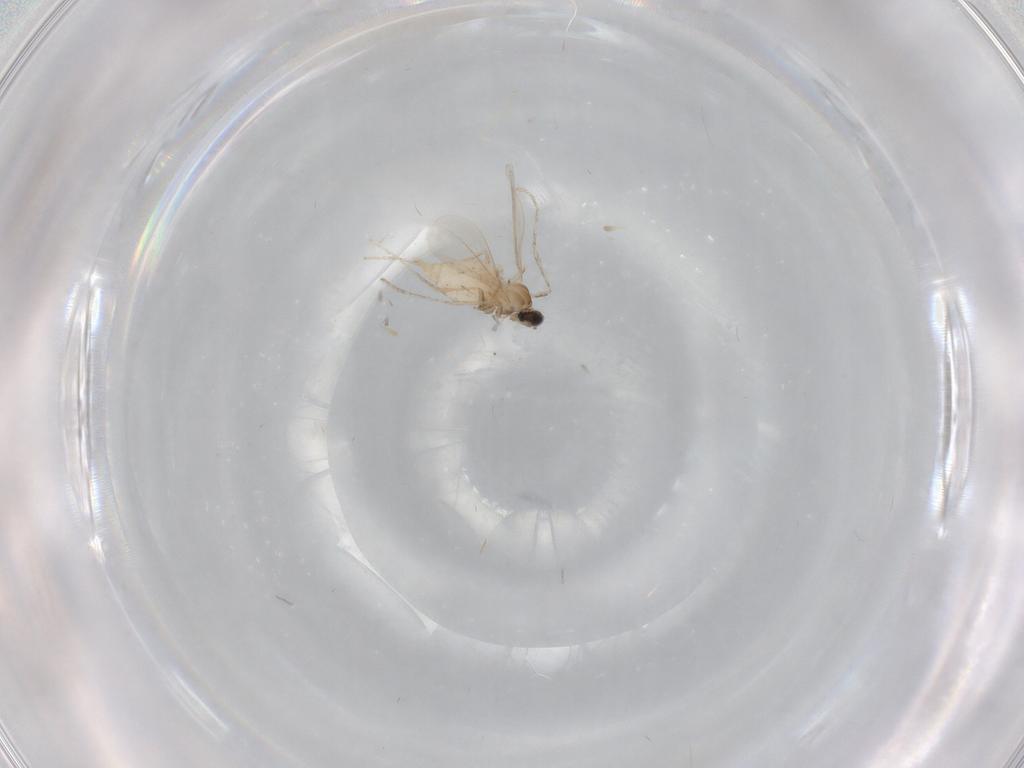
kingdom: Animalia
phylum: Arthropoda
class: Insecta
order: Diptera
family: Cecidomyiidae
